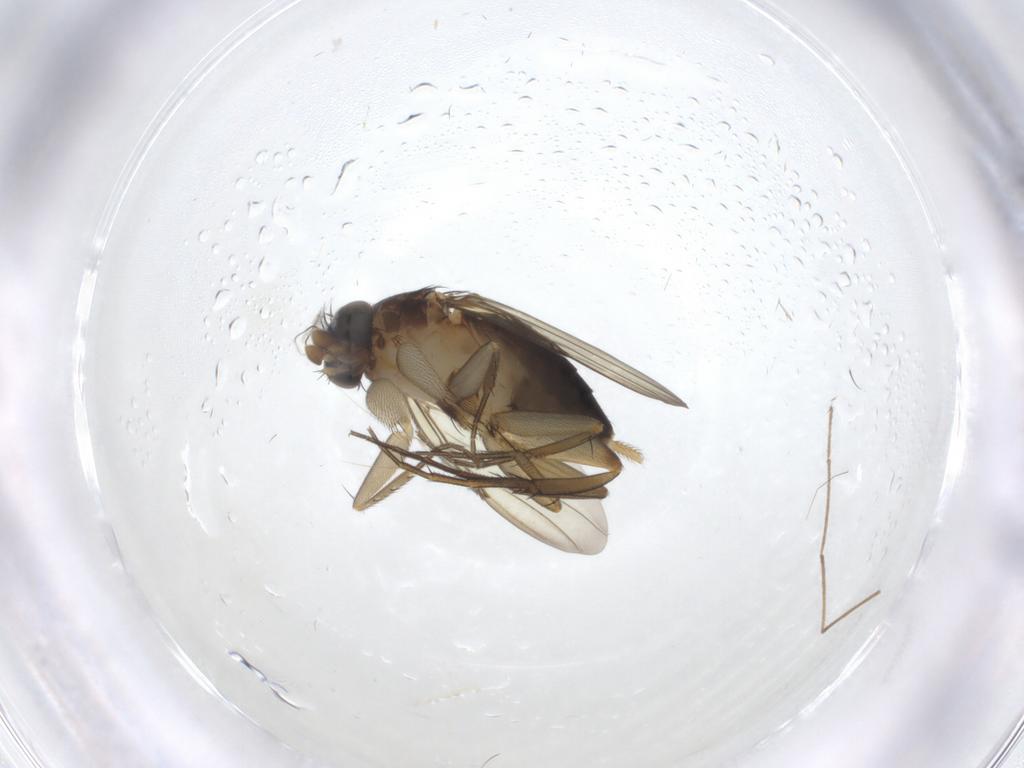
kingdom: Animalia
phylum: Arthropoda
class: Insecta
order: Diptera
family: Phoridae
